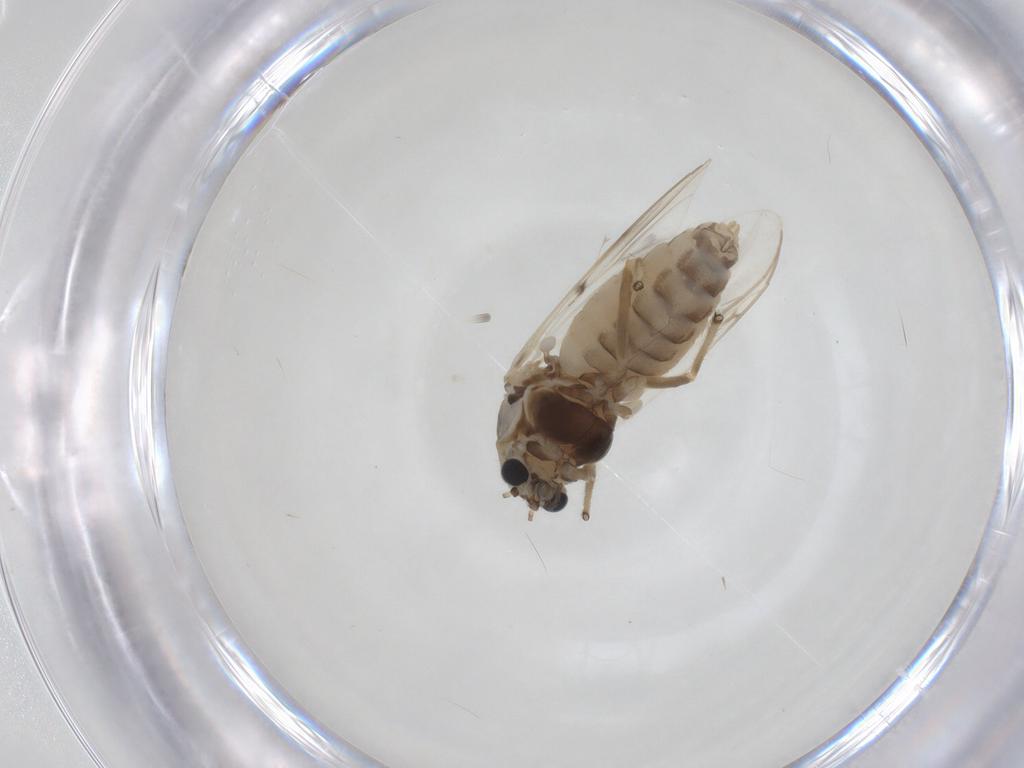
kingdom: Animalia
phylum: Arthropoda
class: Insecta
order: Diptera
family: Chironomidae
